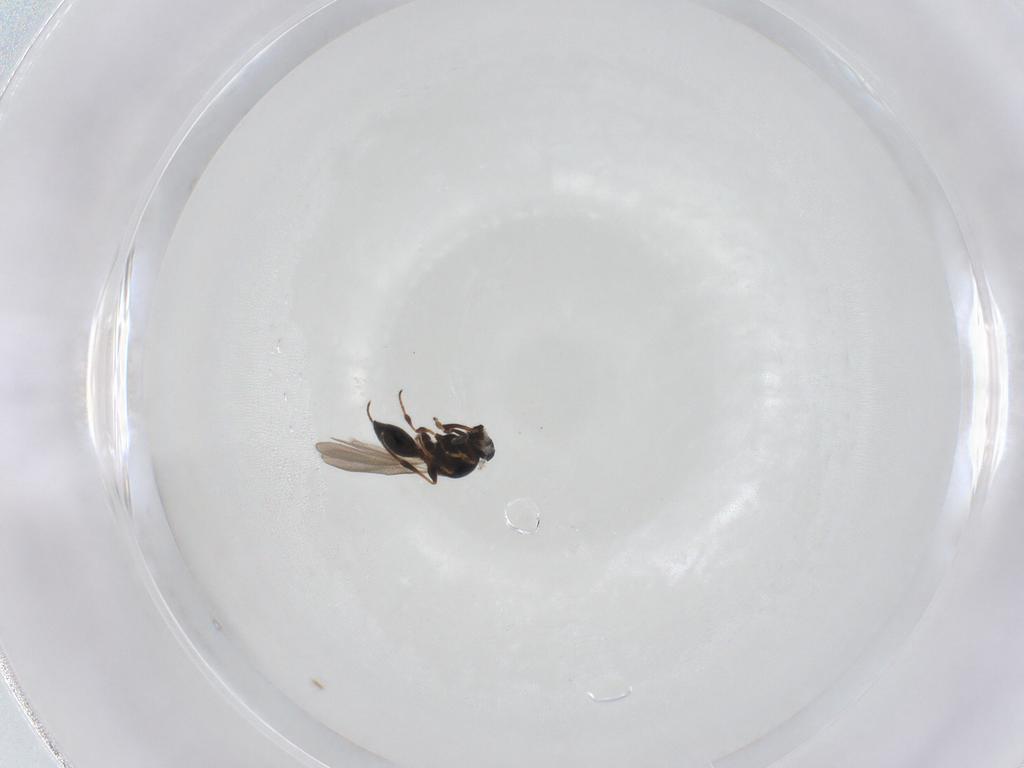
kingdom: Animalia
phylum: Arthropoda
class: Insecta
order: Hymenoptera
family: Platygastridae
